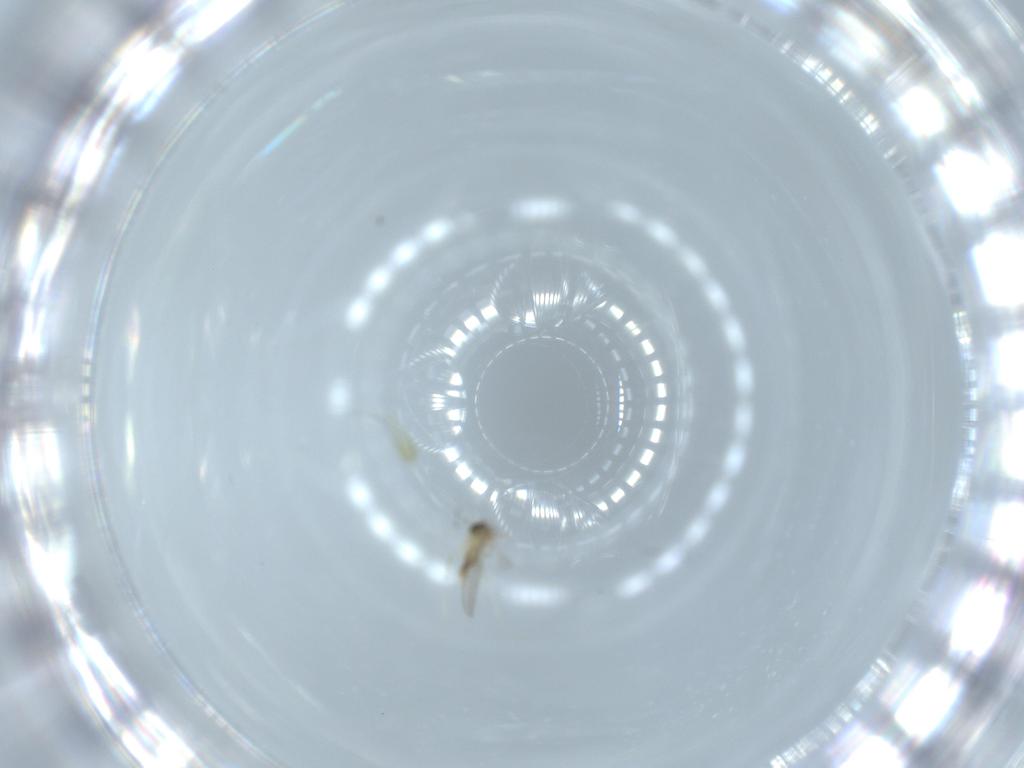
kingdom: Animalia
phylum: Arthropoda
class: Insecta
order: Diptera
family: Cecidomyiidae
